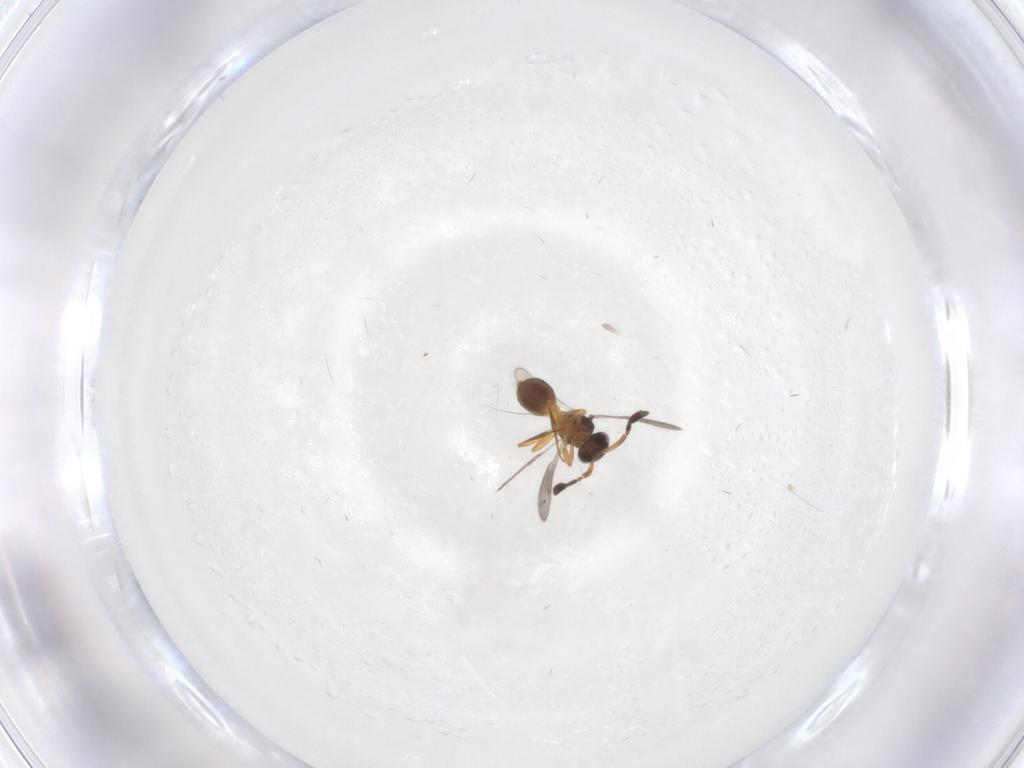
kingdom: Animalia
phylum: Arthropoda
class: Insecta
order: Hymenoptera
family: Scelionidae
